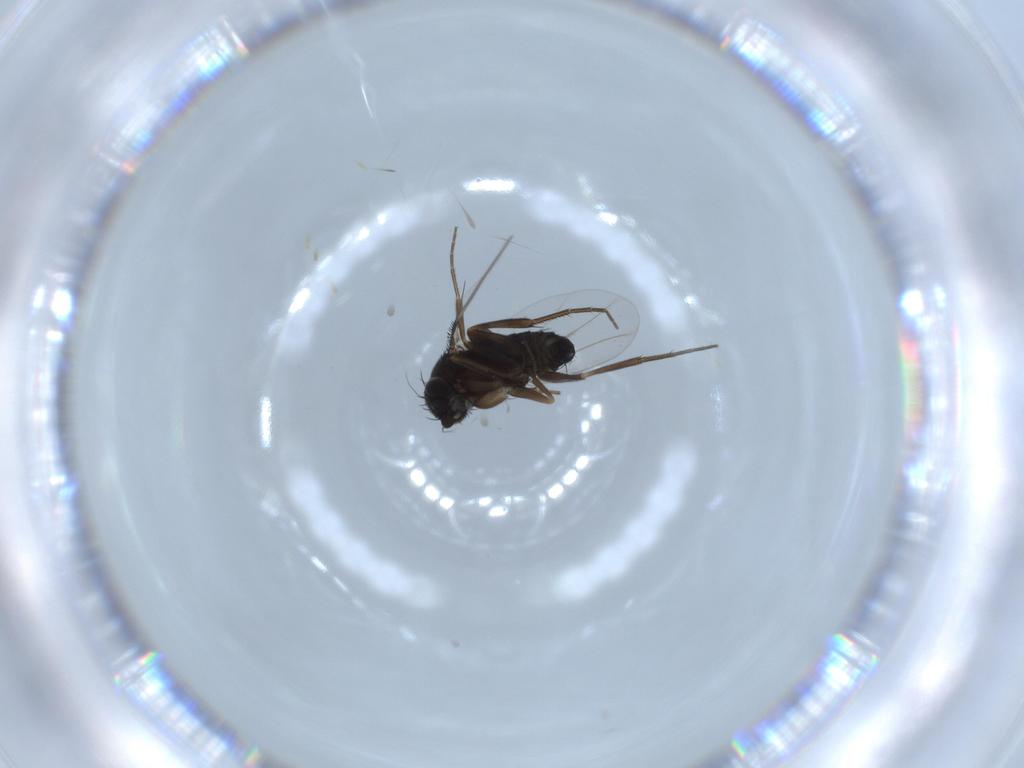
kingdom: Animalia
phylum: Arthropoda
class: Insecta
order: Diptera
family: Phoridae
